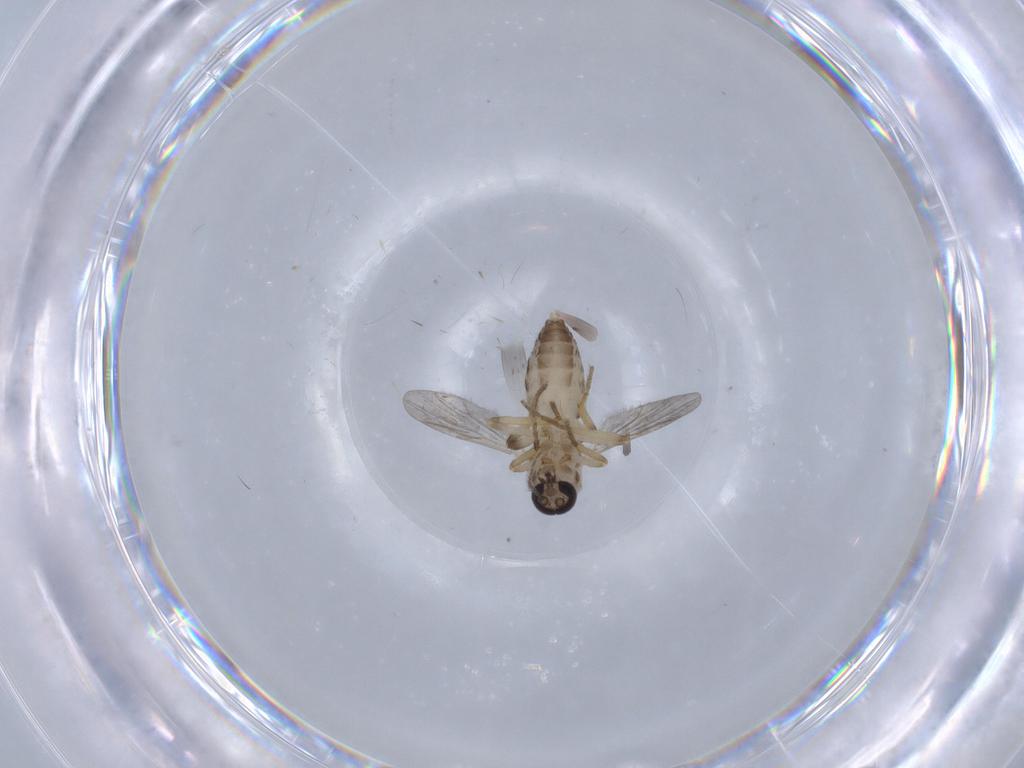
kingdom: Animalia
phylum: Arthropoda
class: Insecta
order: Diptera
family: Ceratopogonidae
